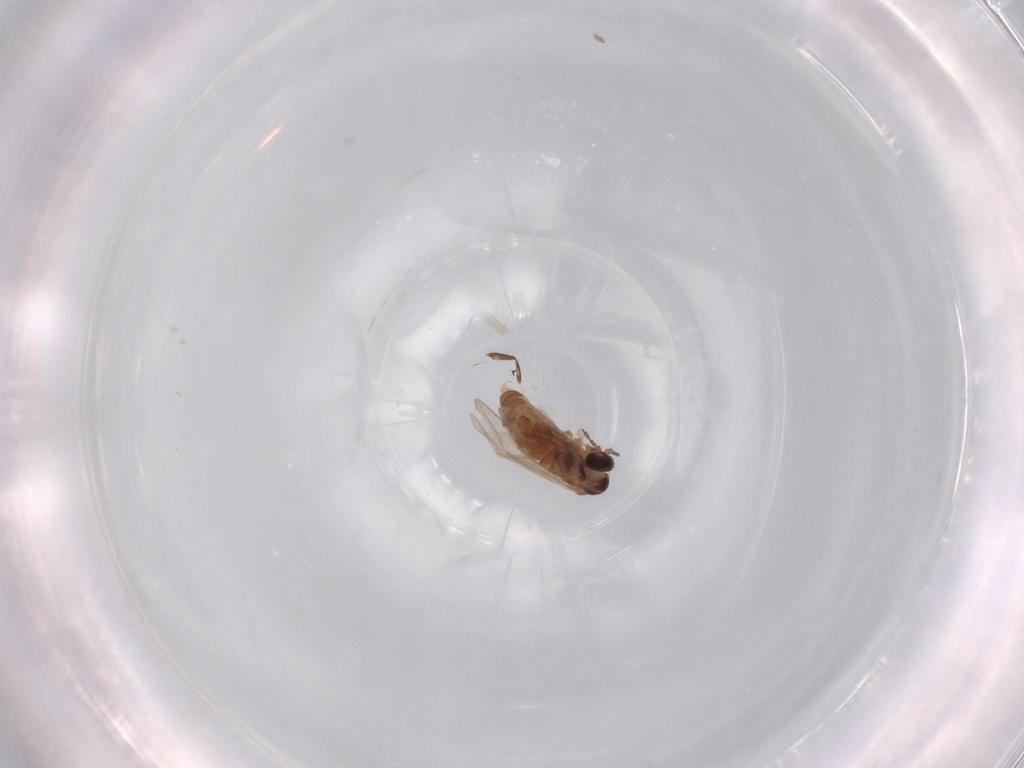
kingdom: Animalia
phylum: Arthropoda
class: Insecta
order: Diptera
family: Cecidomyiidae
